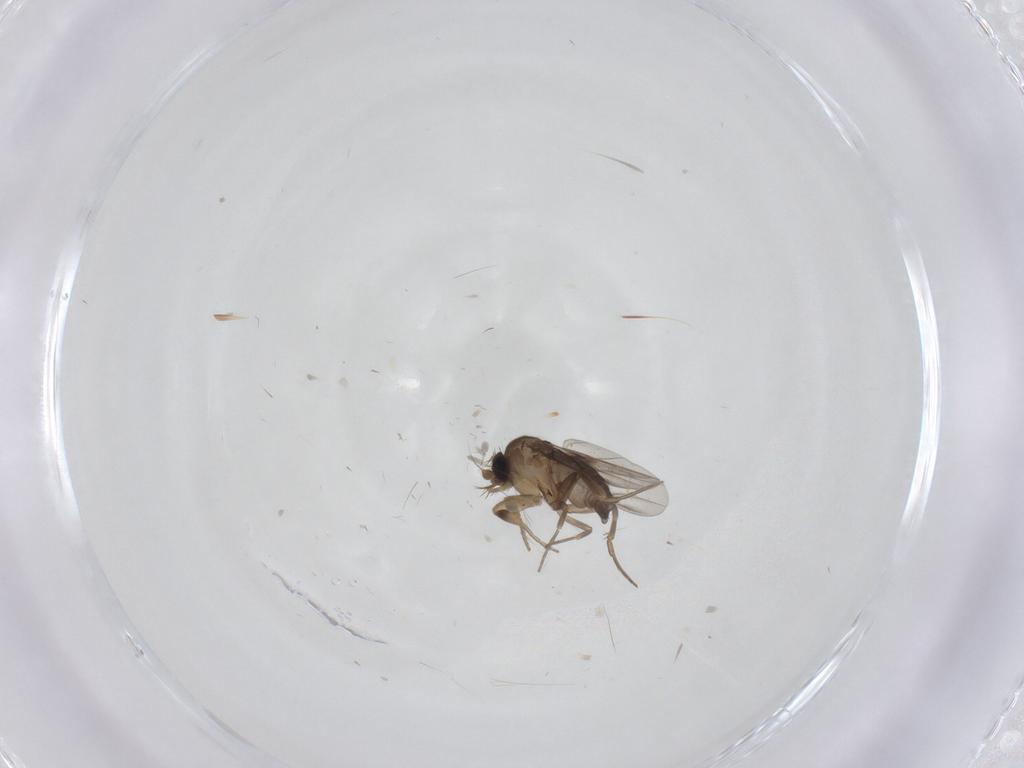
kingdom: Animalia
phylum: Arthropoda
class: Insecta
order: Diptera
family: Phoridae
